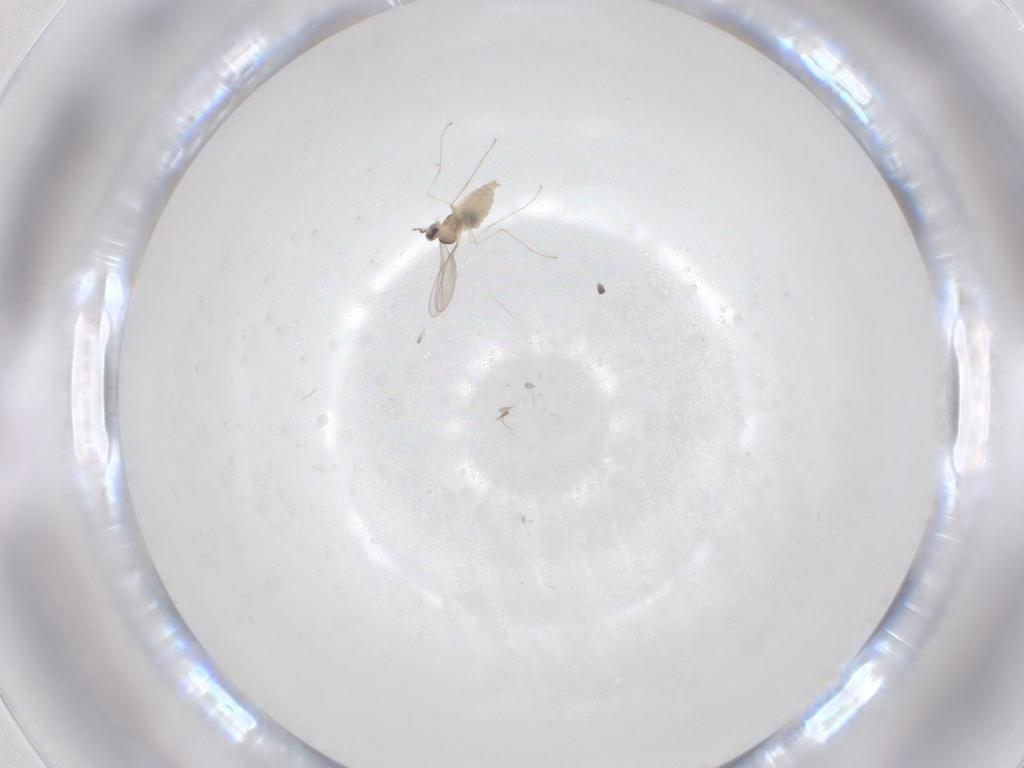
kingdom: Animalia
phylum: Arthropoda
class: Insecta
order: Diptera
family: Cecidomyiidae
